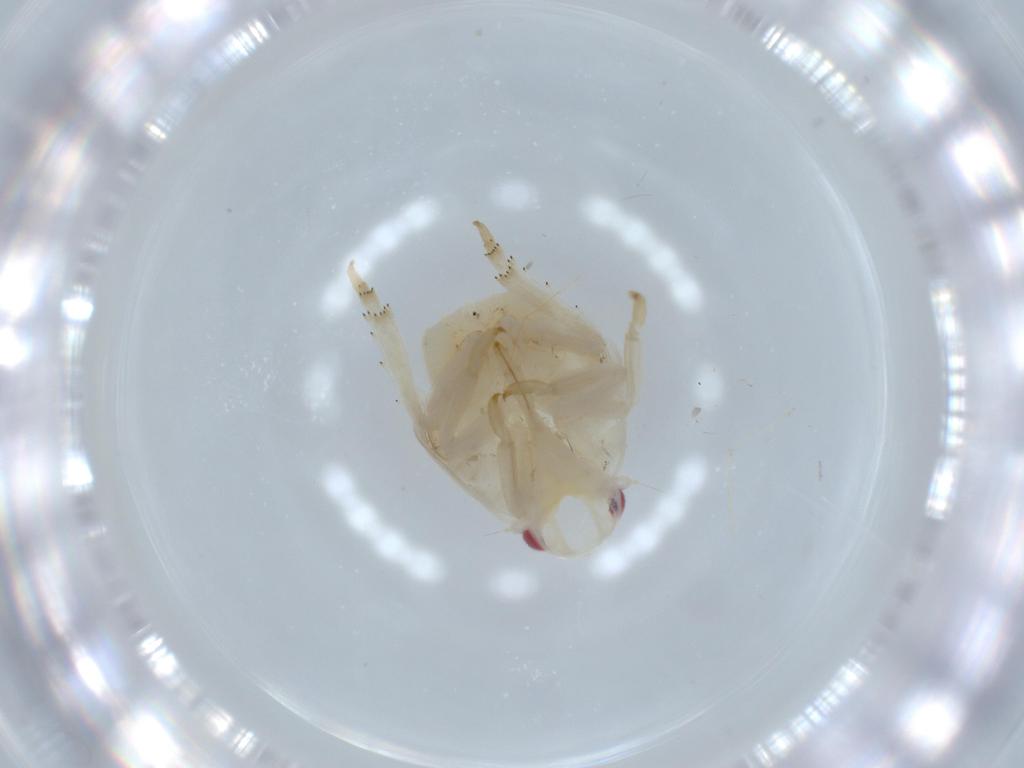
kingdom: Animalia
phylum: Arthropoda
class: Insecta
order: Hemiptera
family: Flatidae
